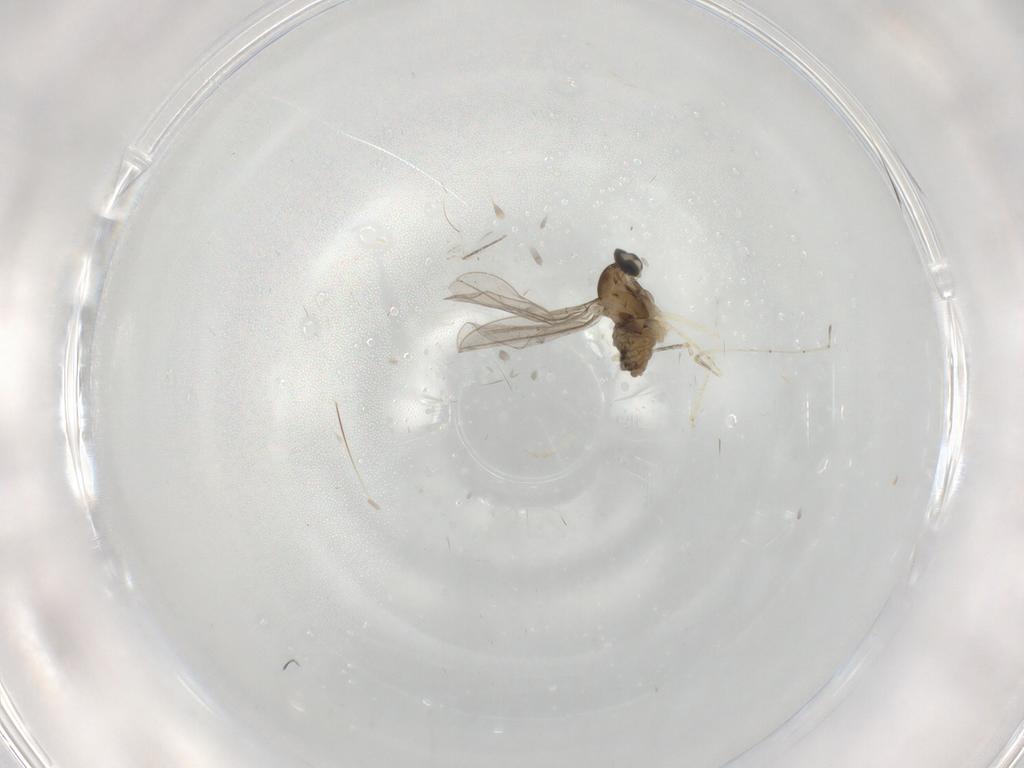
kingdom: Animalia
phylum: Arthropoda
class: Insecta
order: Diptera
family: Cecidomyiidae
